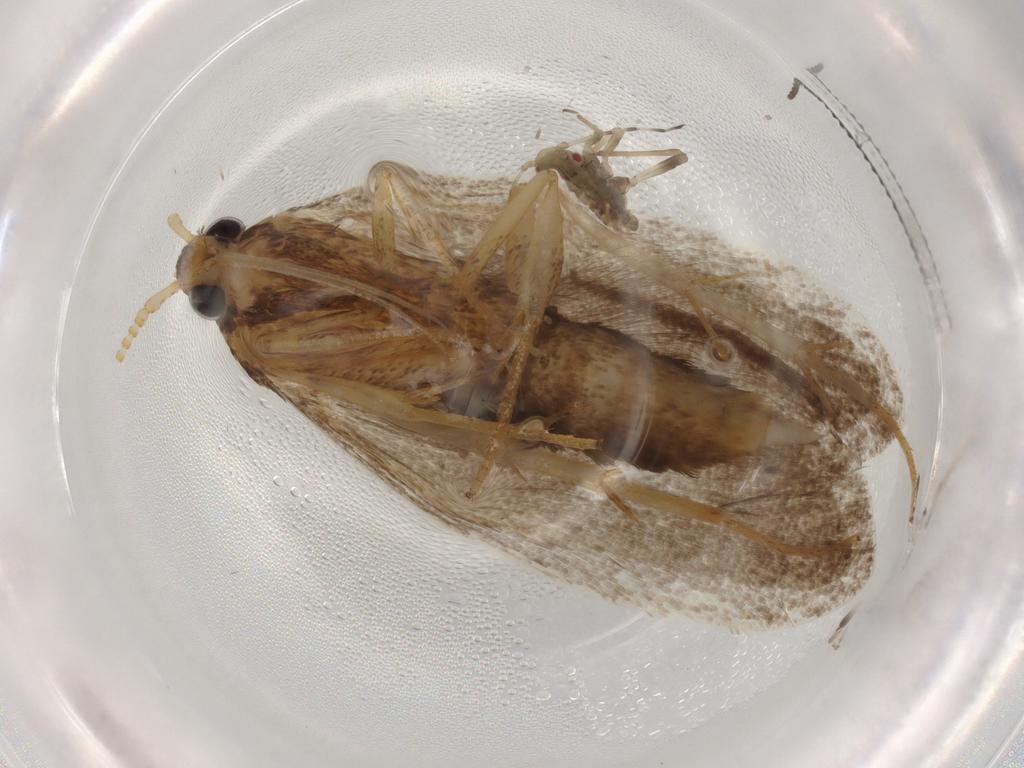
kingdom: Animalia
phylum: Arthropoda
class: Insecta
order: Lepidoptera
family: Lecithoceridae
